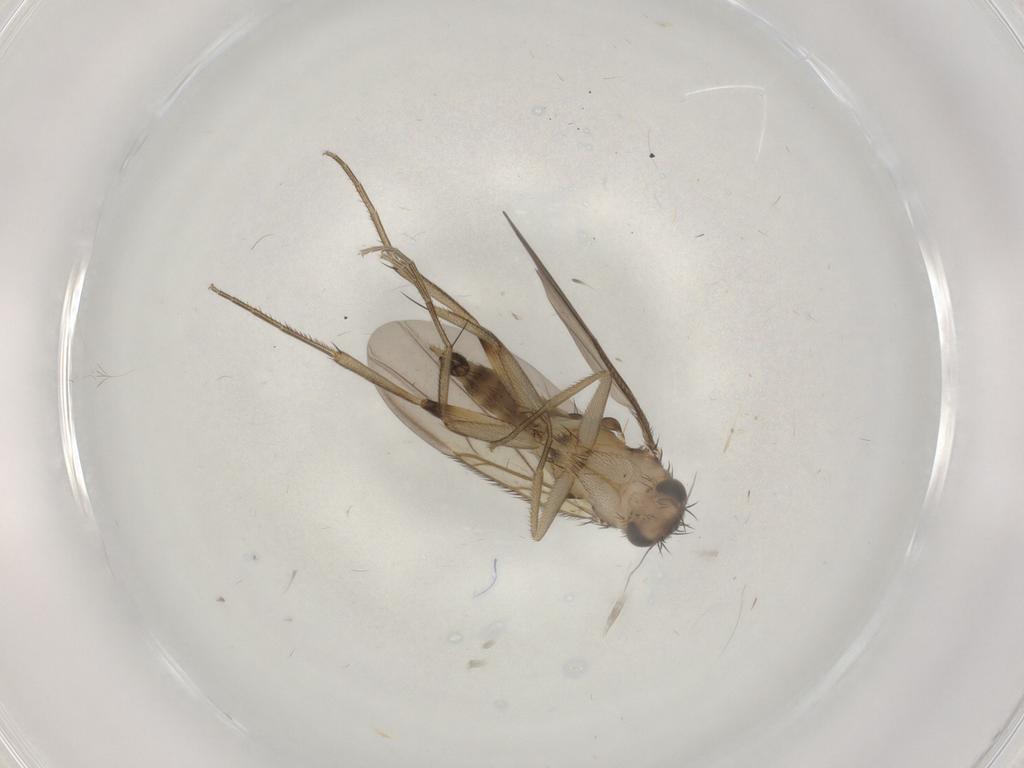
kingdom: Animalia
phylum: Arthropoda
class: Insecta
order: Diptera
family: Phoridae
